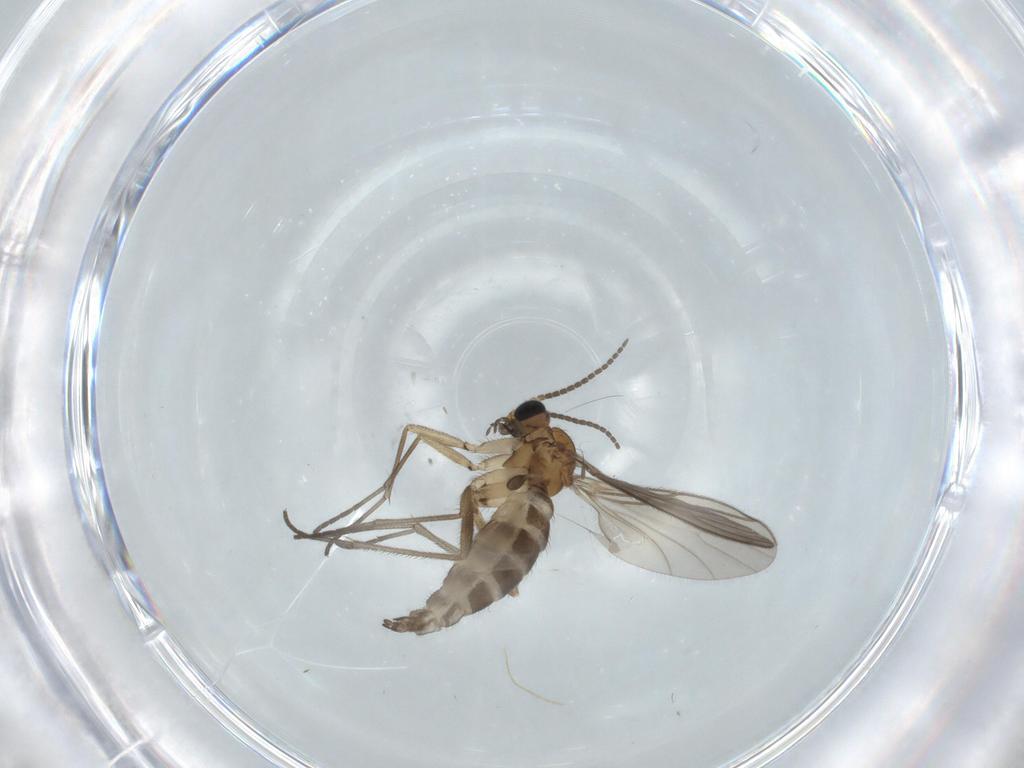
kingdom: Animalia
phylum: Arthropoda
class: Insecta
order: Diptera
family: Sciaridae
